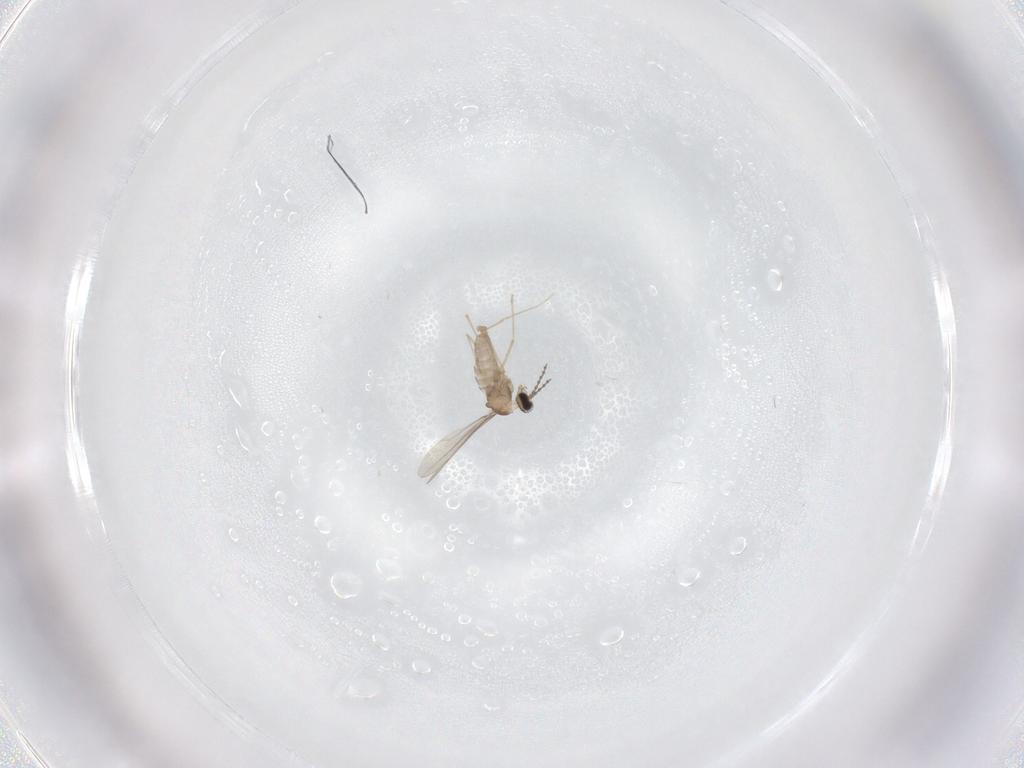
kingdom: Animalia
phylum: Arthropoda
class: Insecta
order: Diptera
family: Cecidomyiidae
